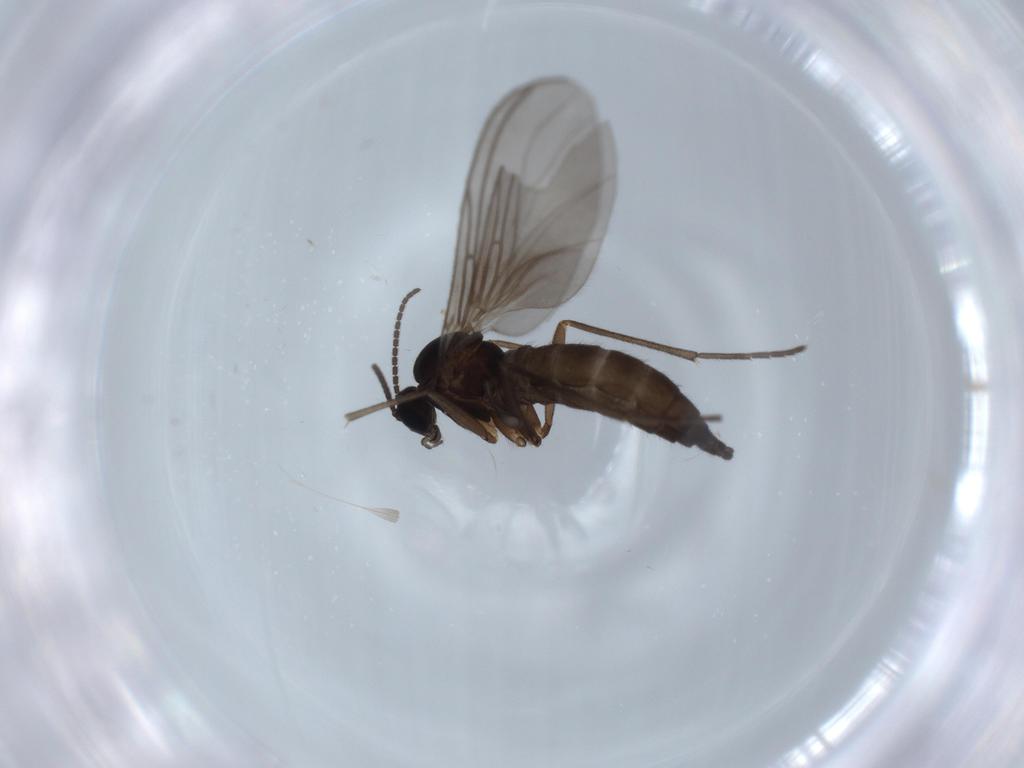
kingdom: Animalia
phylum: Arthropoda
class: Insecta
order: Diptera
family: Sciaridae
